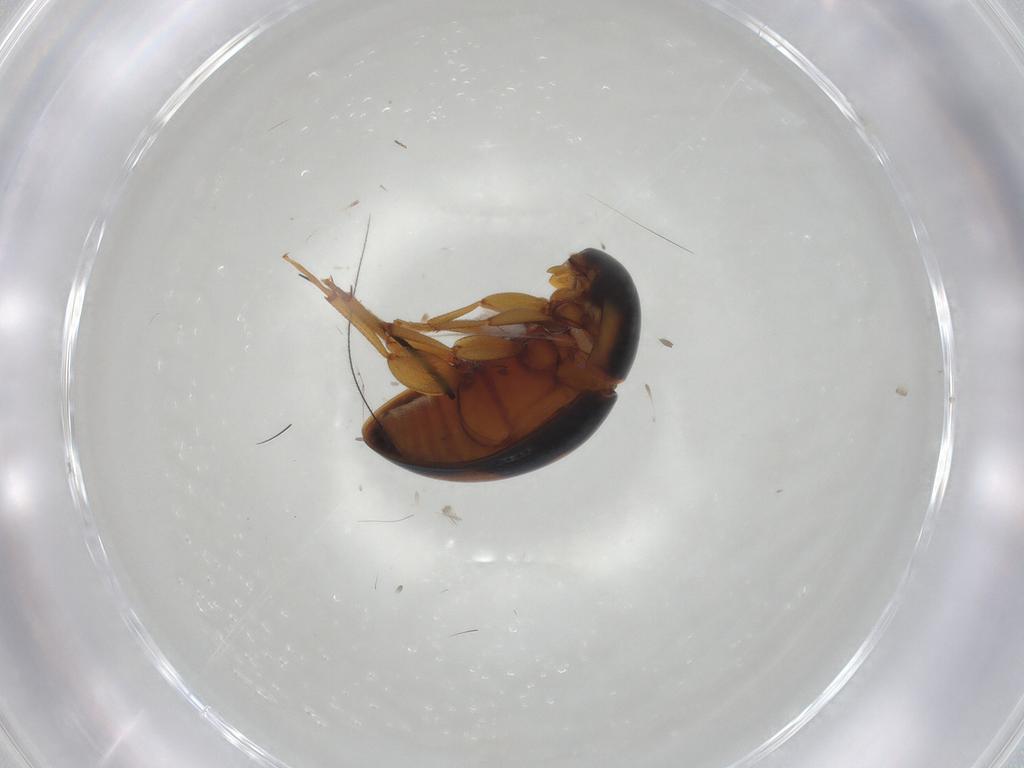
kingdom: Animalia
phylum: Arthropoda
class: Insecta
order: Coleoptera
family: Phalacridae
